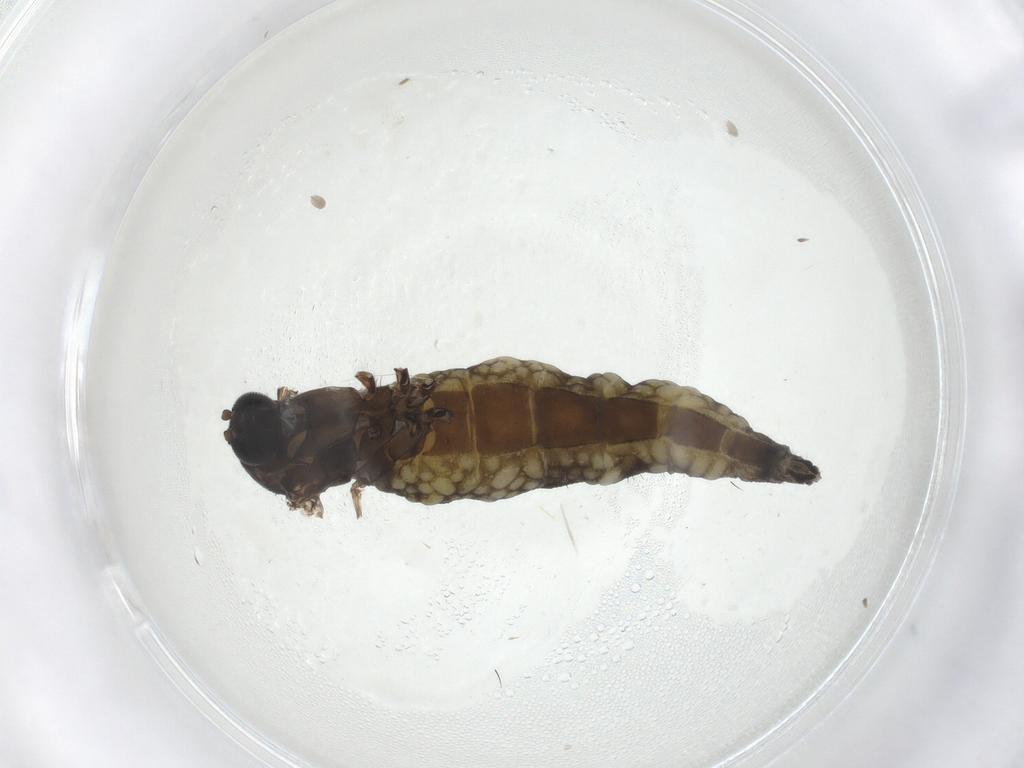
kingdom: Animalia
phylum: Arthropoda
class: Insecta
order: Diptera
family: Sciaridae
